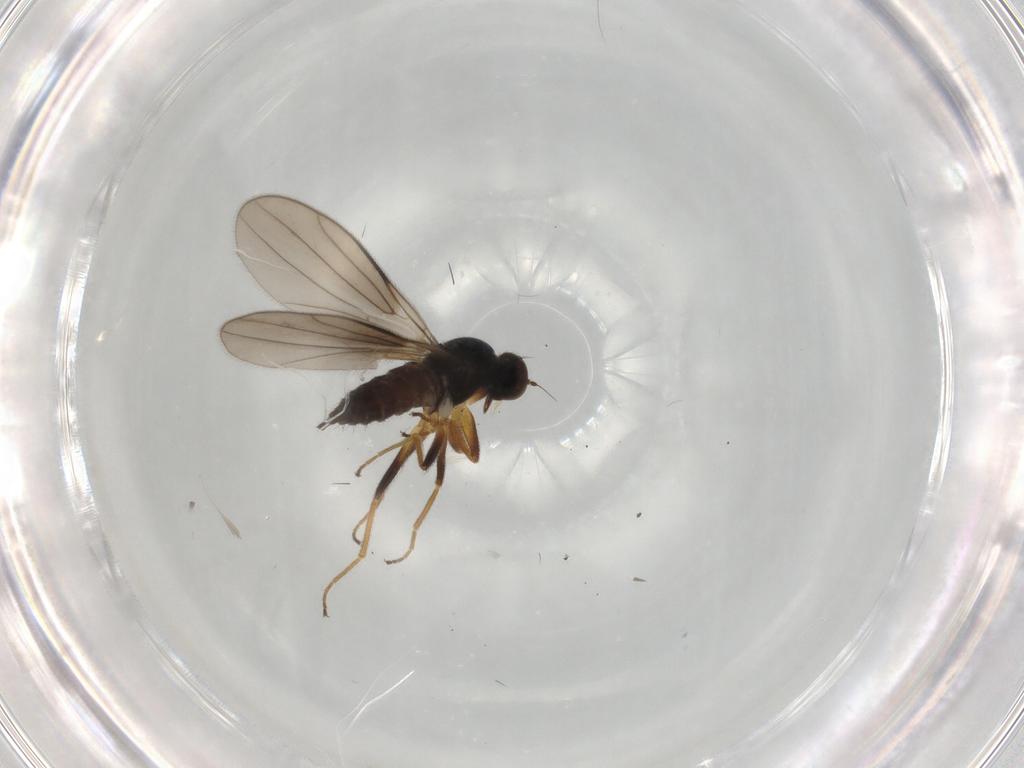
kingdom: Animalia
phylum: Arthropoda
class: Insecta
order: Diptera
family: Hybotidae
